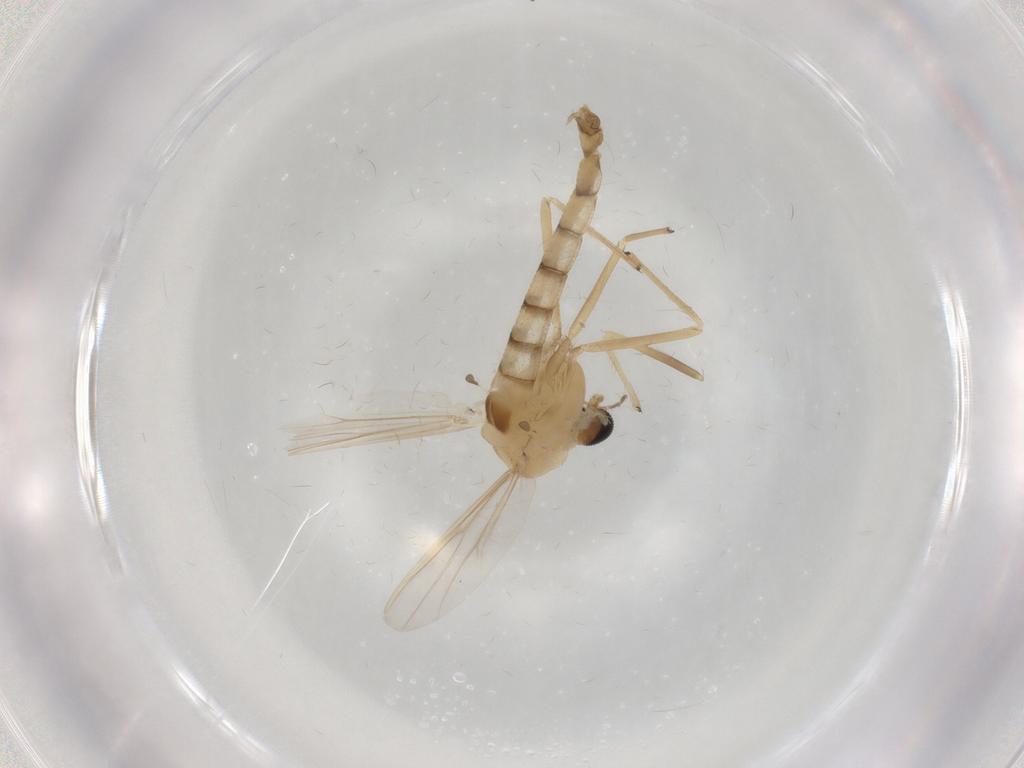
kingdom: Animalia
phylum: Arthropoda
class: Insecta
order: Diptera
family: Chironomidae
